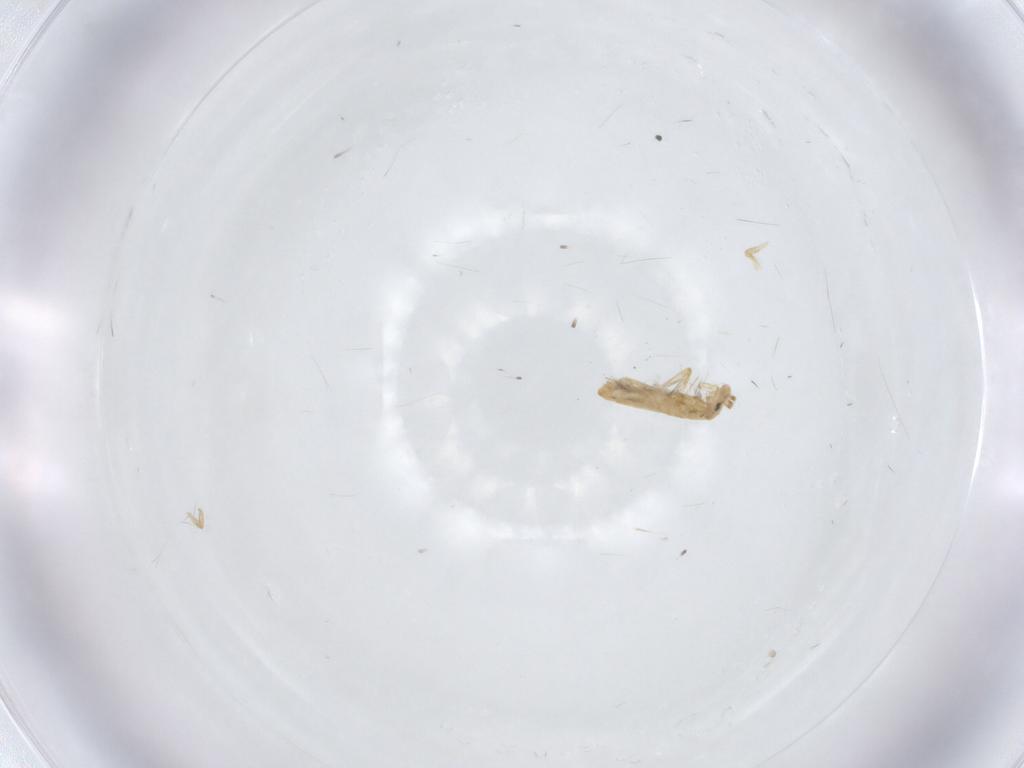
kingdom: Animalia
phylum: Arthropoda
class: Collembola
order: Entomobryomorpha
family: Entomobryidae
